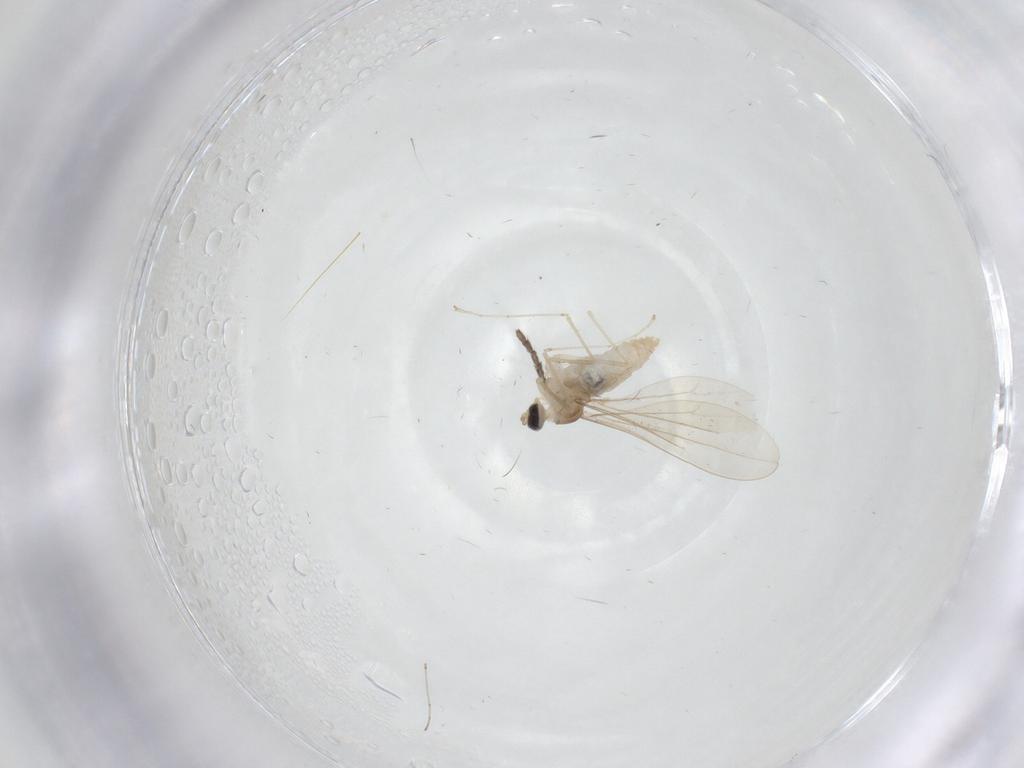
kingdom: Animalia
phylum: Arthropoda
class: Insecta
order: Diptera
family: Cecidomyiidae
